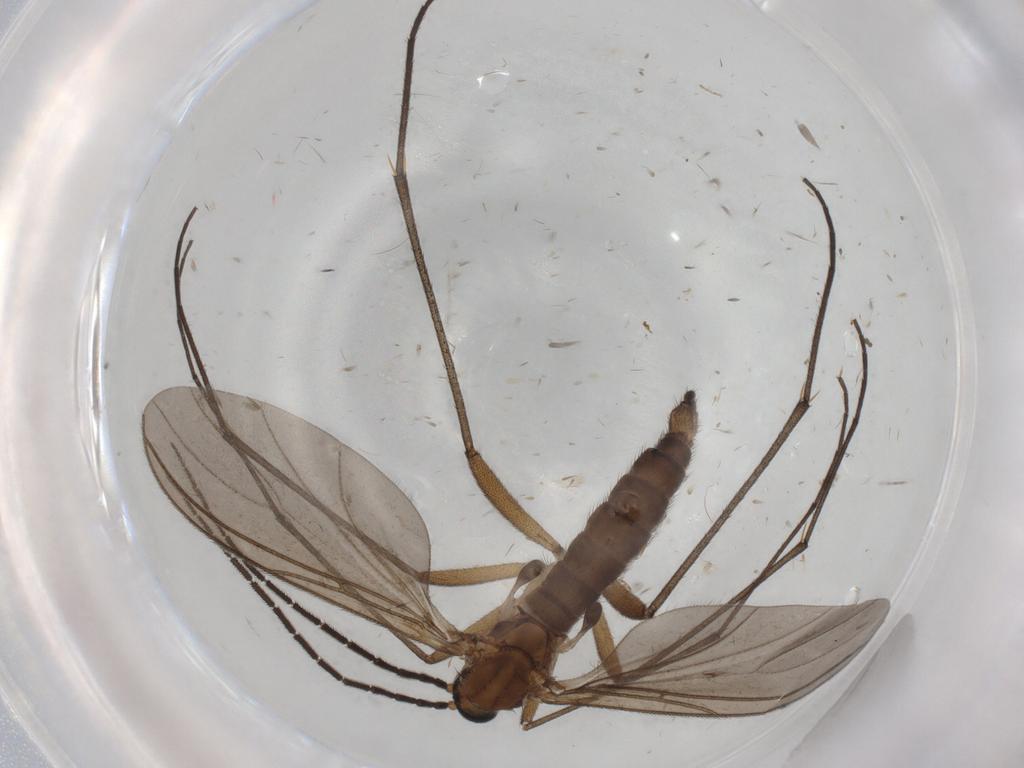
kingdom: Animalia
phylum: Arthropoda
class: Insecta
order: Diptera
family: Sciaridae
